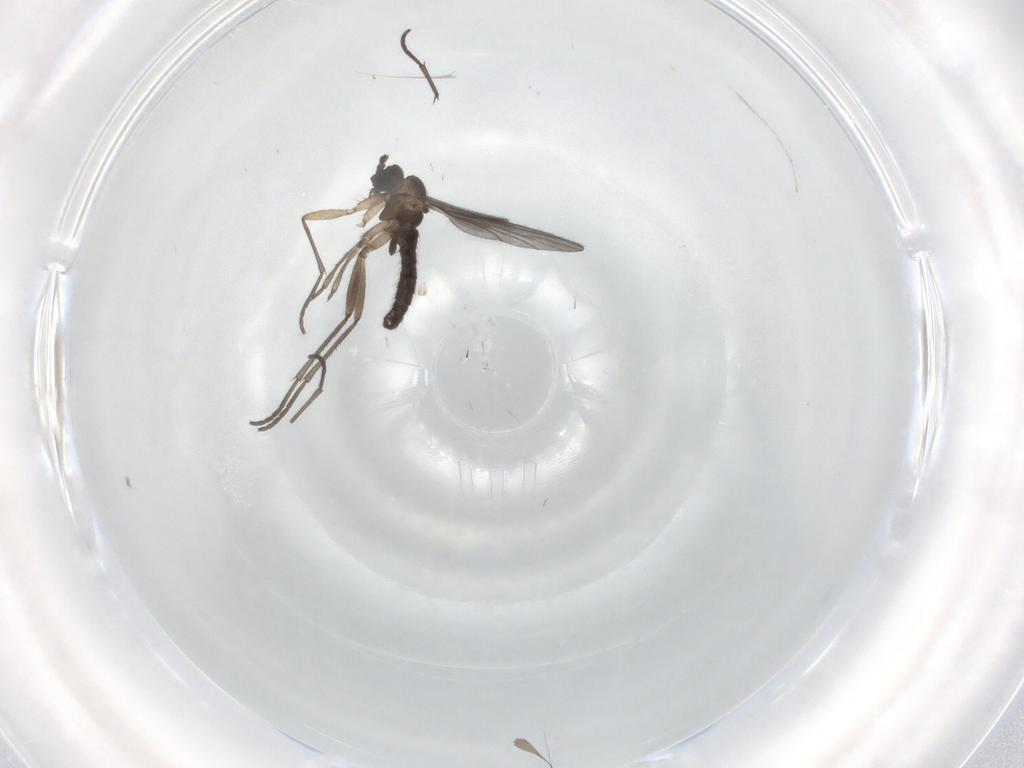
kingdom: Animalia
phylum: Arthropoda
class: Insecta
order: Diptera
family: Sciaridae
